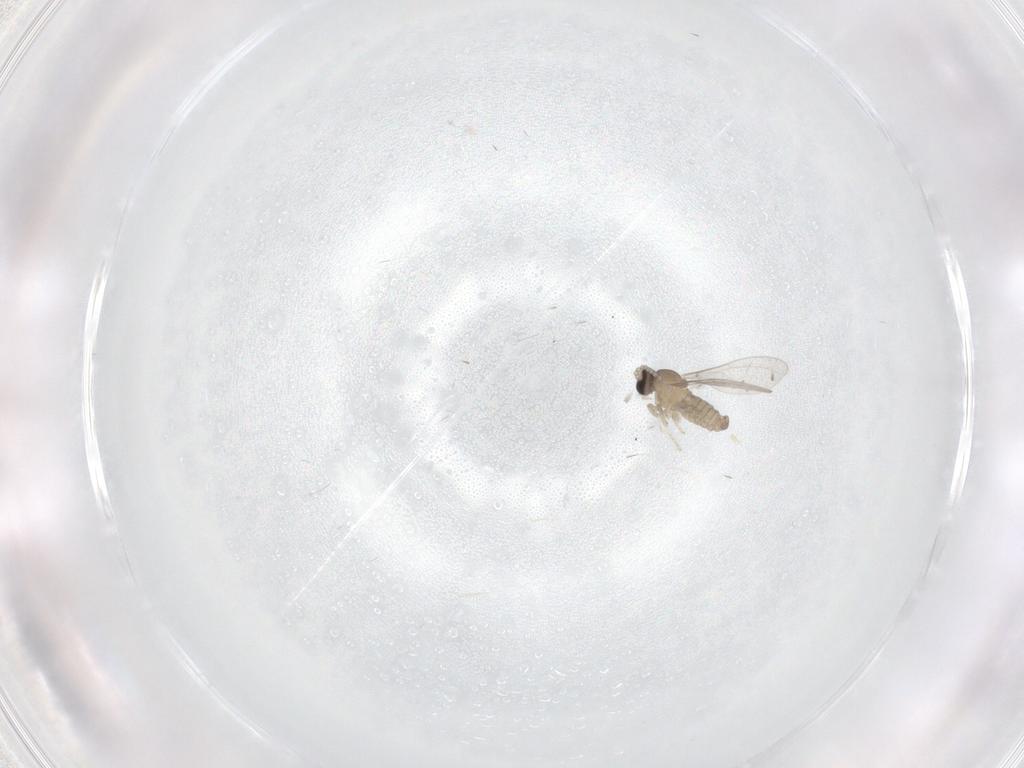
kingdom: Animalia
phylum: Arthropoda
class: Insecta
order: Diptera
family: Cecidomyiidae
